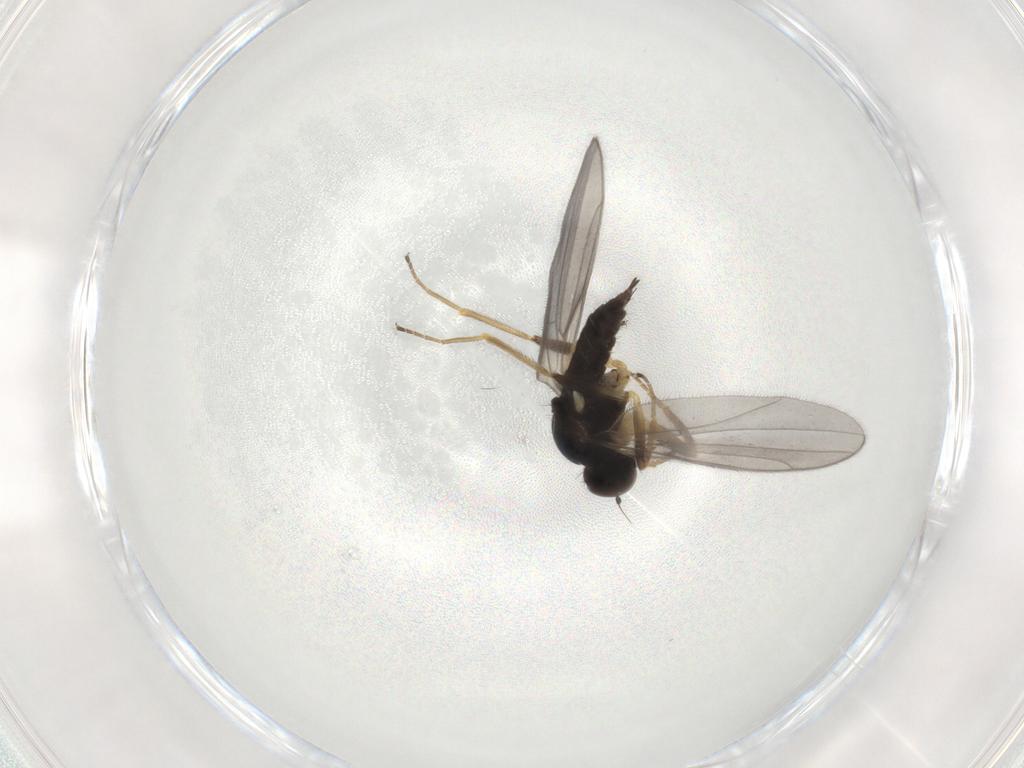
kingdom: Animalia
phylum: Arthropoda
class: Insecta
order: Diptera
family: Hybotidae
